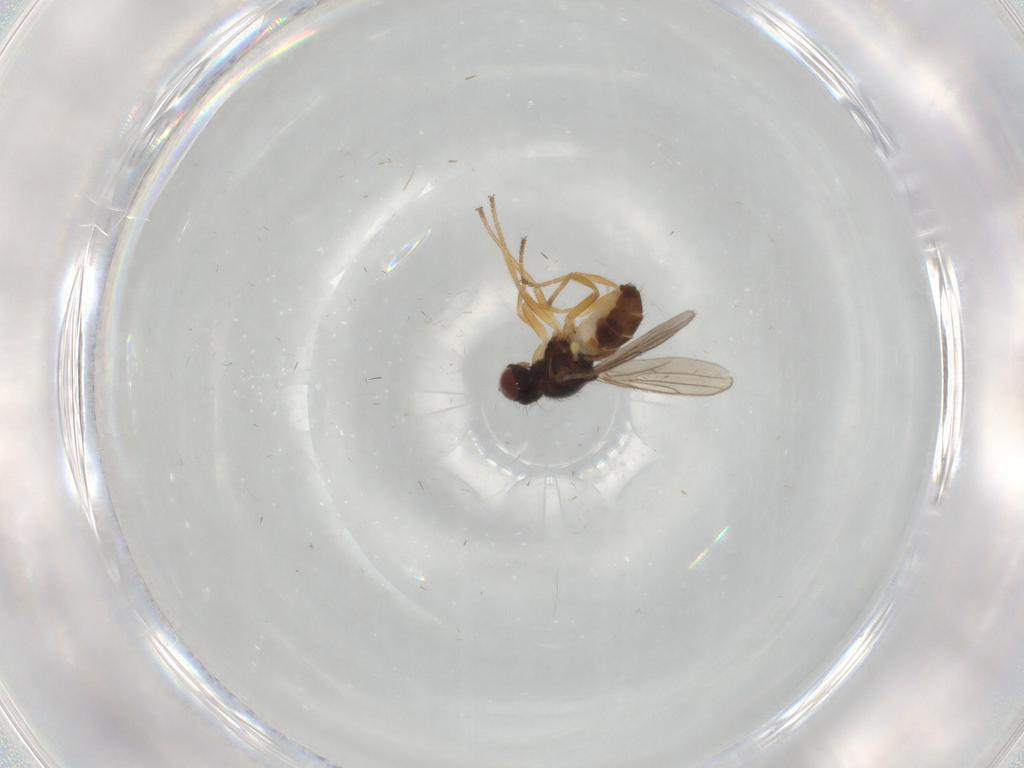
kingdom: Animalia
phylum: Arthropoda
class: Insecta
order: Diptera
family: Chloropidae
